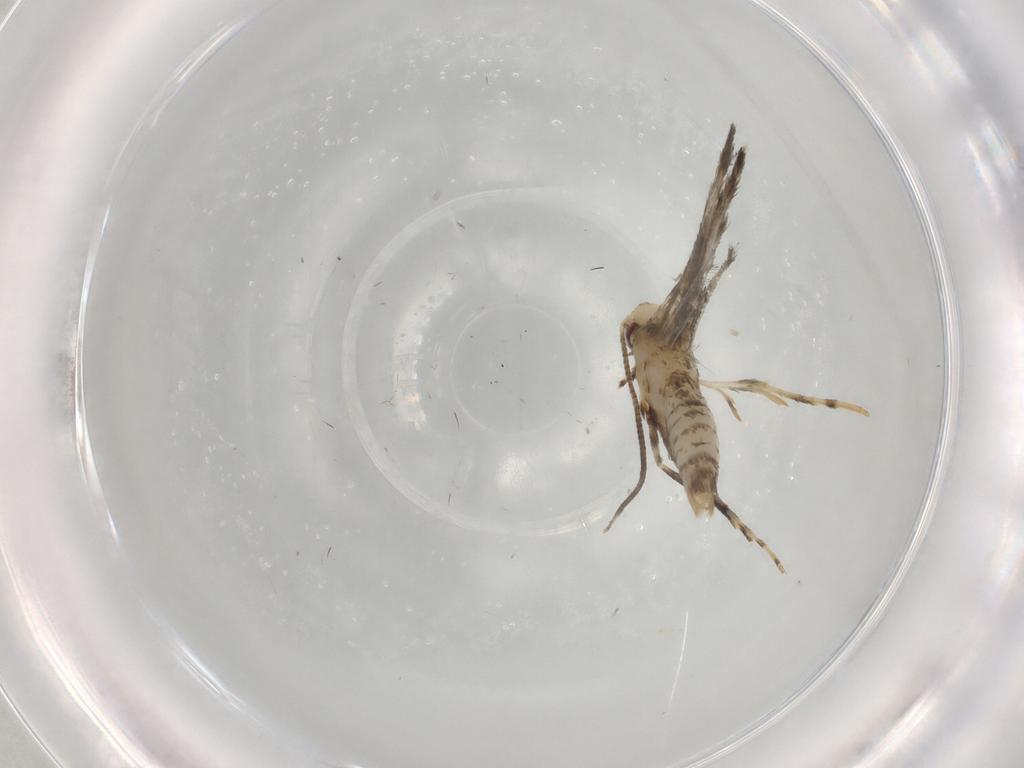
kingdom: Animalia
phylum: Arthropoda
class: Insecta
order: Lepidoptera
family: Gracillariidae
